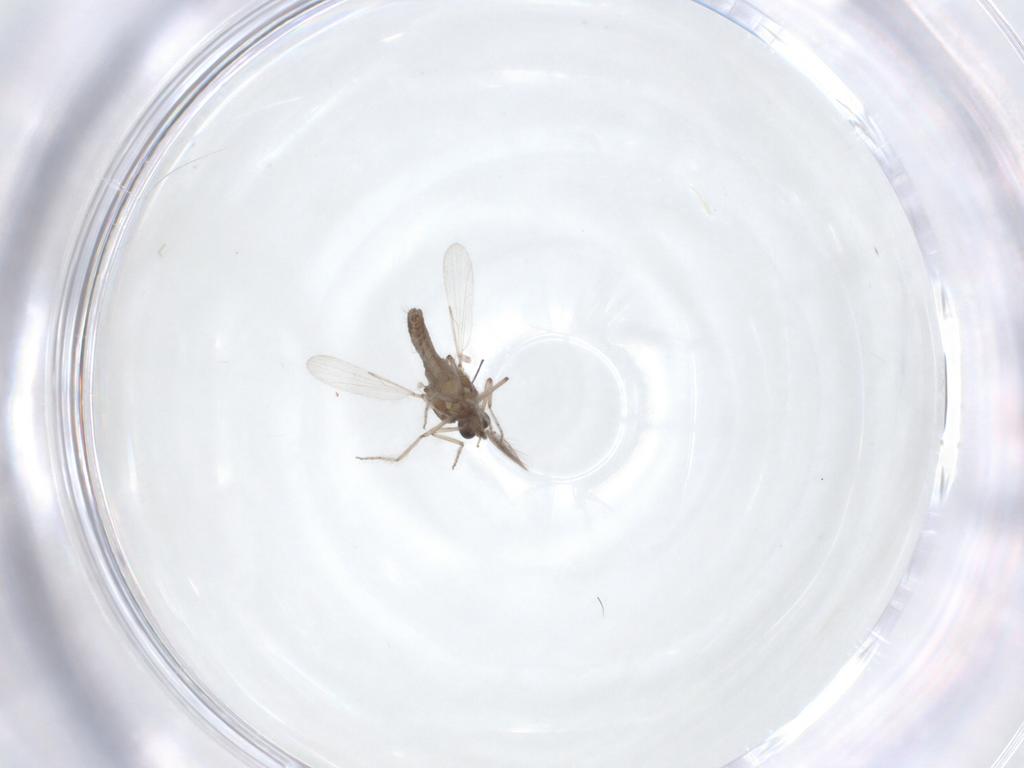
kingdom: Animalia
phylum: Arthropoda
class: Insecta
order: Diptera
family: Ceratopogonidae
